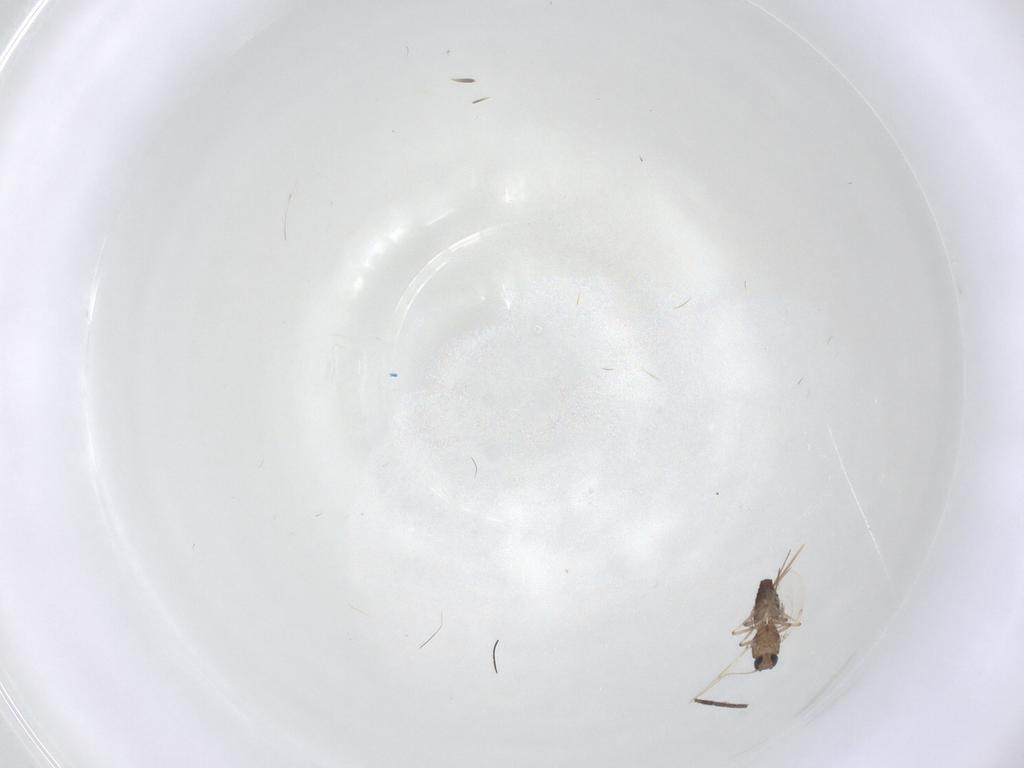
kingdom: Animalia
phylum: Arthropoda
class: Insecta
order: Diptera
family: Ceratopogonidae
